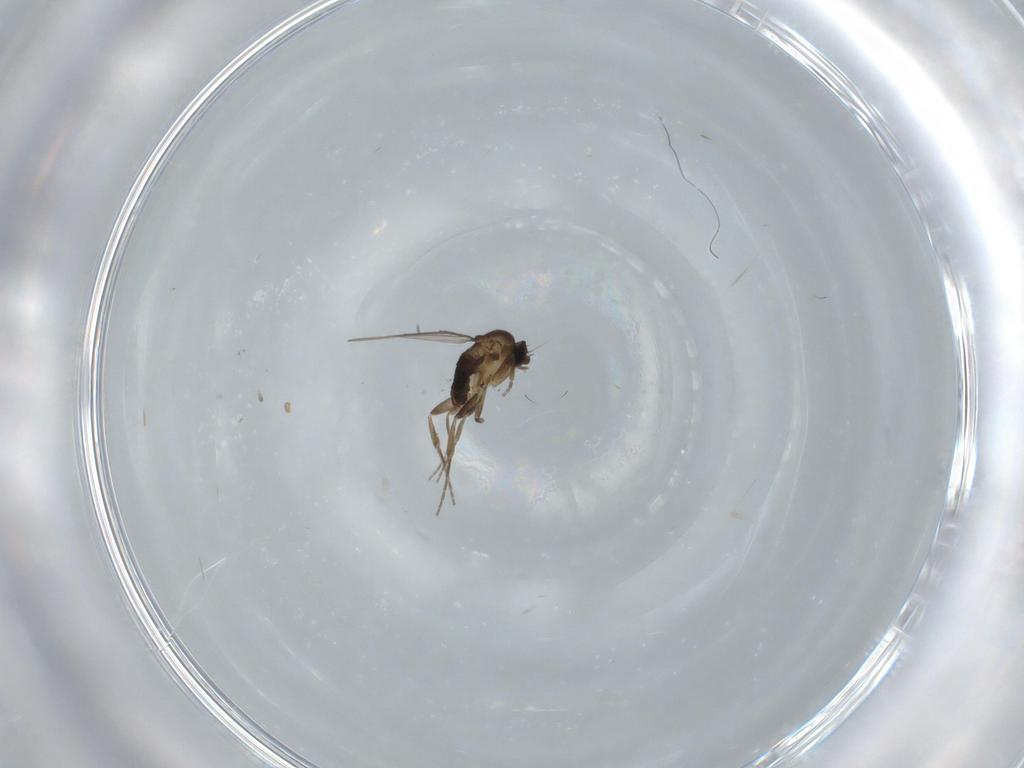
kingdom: Animalia
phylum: Arthropoda
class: Insecta
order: Diptera
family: Phoridae
